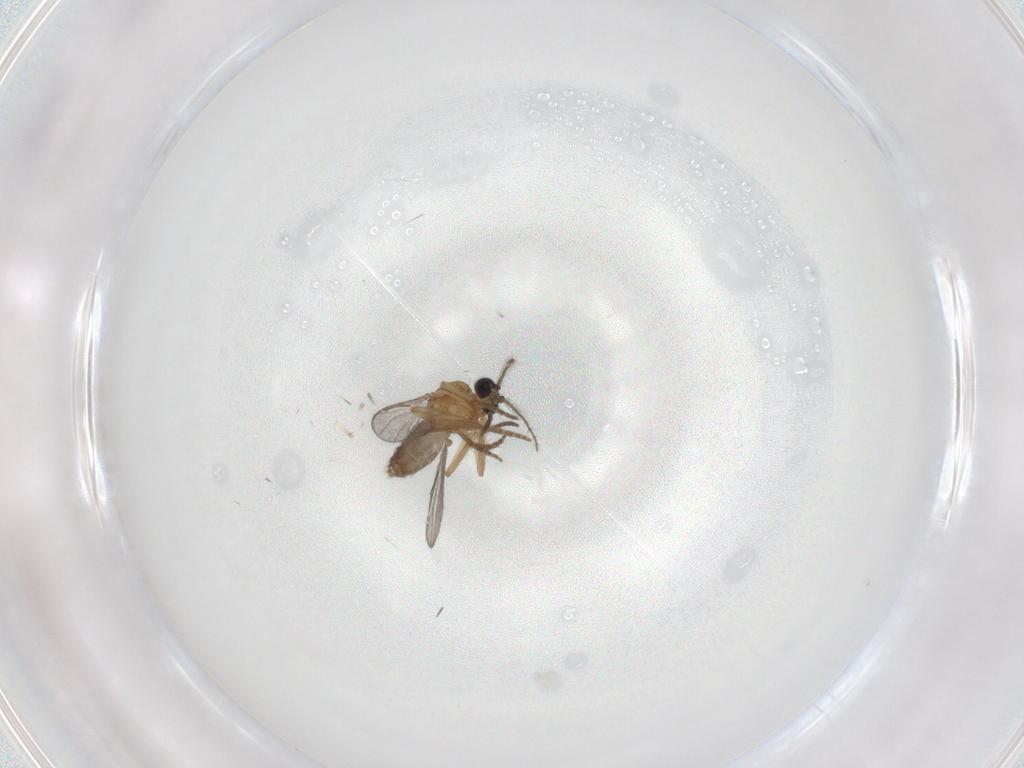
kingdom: Animalia
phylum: Arthropoda
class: Insecta
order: Diptera
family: Ceratopogonidae
